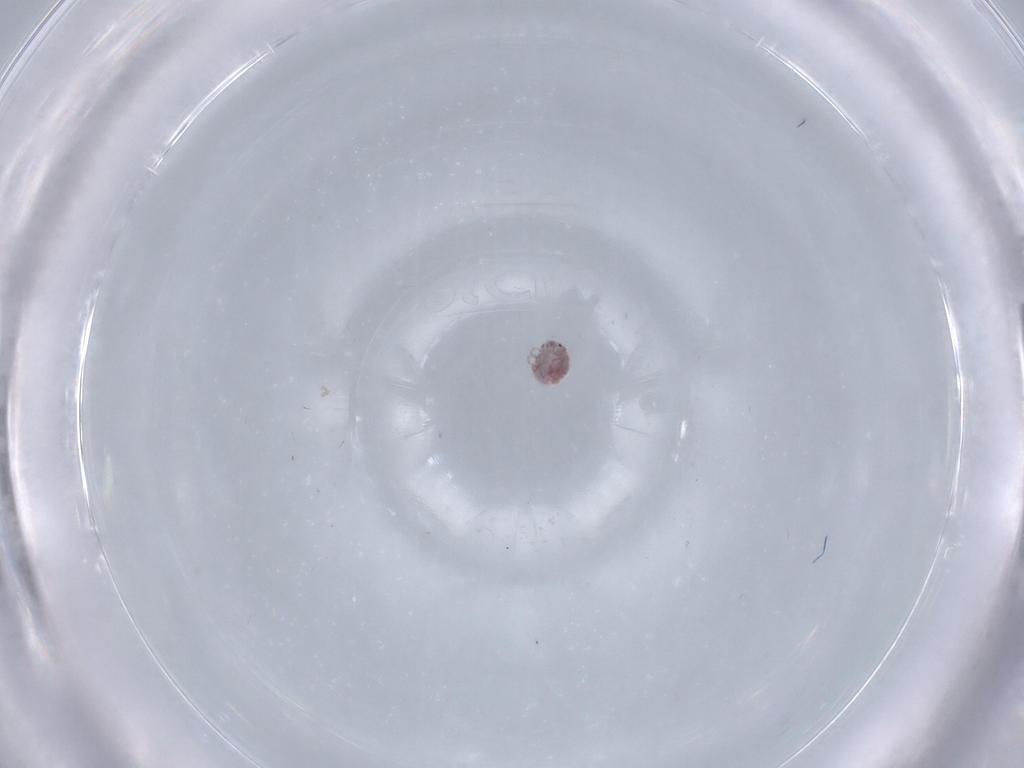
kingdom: Animalia
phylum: Arthropoda
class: Arachnida
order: Trombidiformes
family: Pionidae
